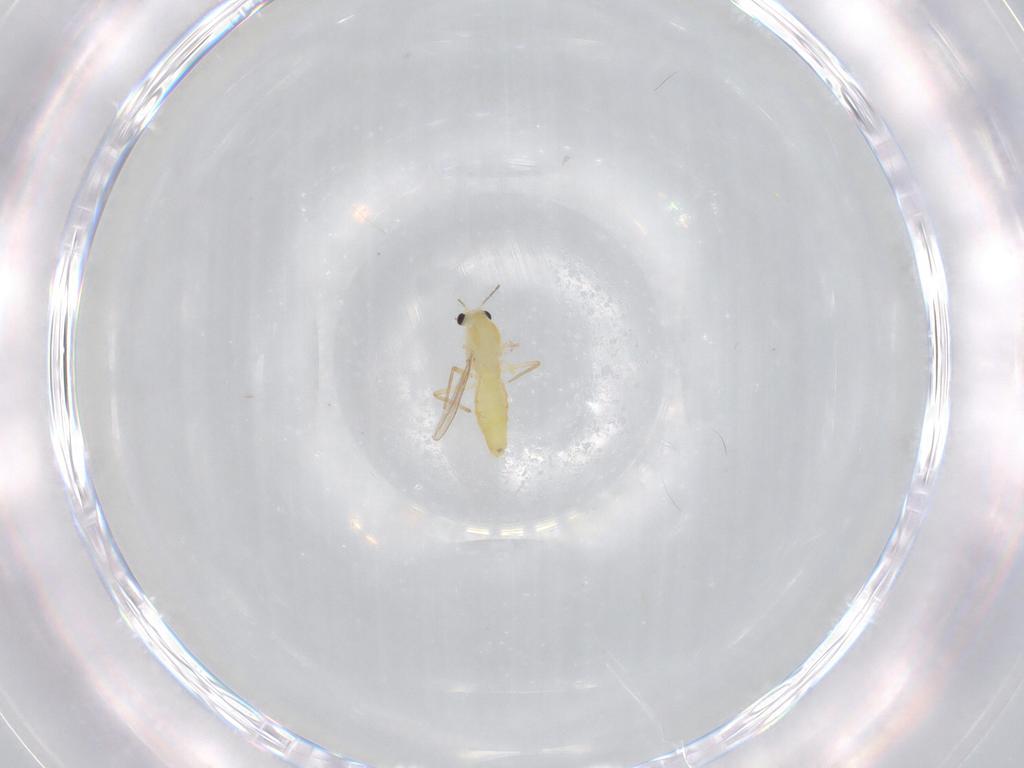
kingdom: Animalia
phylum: Arthropoda
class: Insecta
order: Diptera
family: Chironomidae
